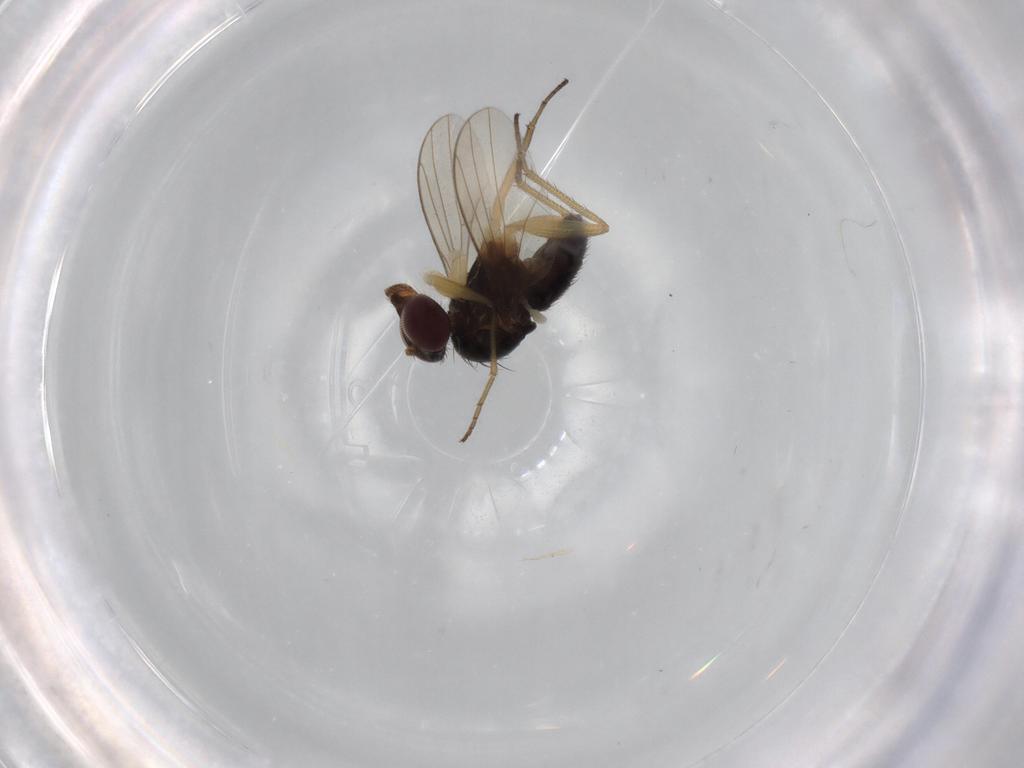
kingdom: Animalia
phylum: Arthropoda
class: Insecta
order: Diptera
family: Dolichopodidae
